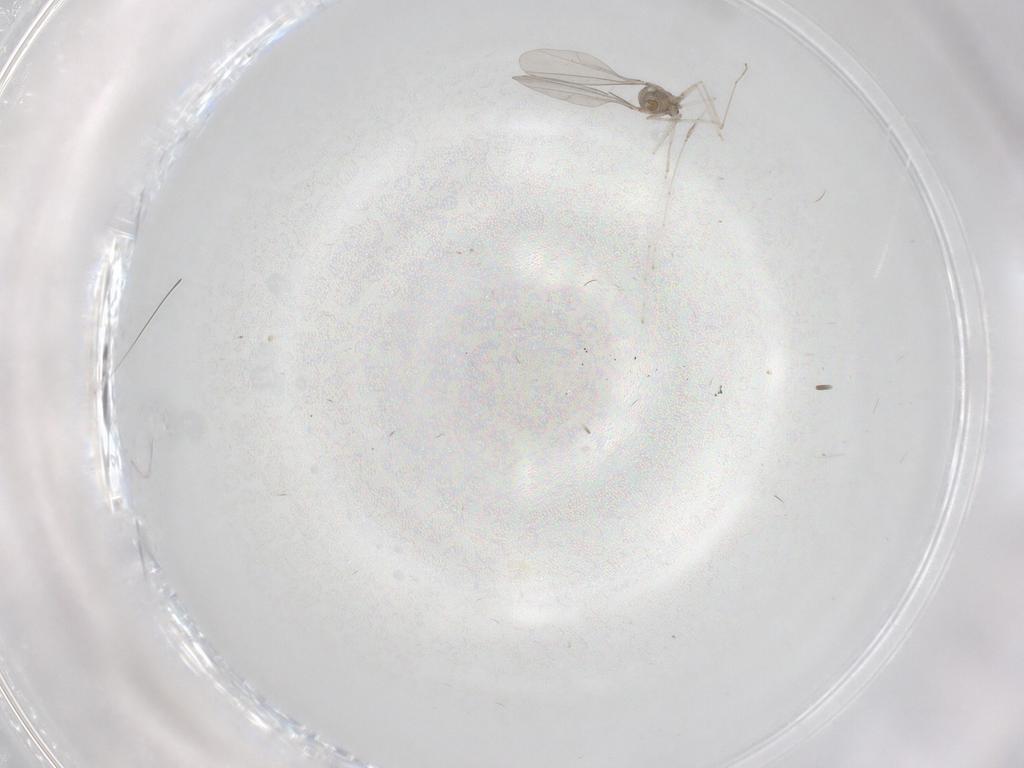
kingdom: Animalia
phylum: Arthropoda
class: Insecta
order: Diptera
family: Cecidomyiidae
